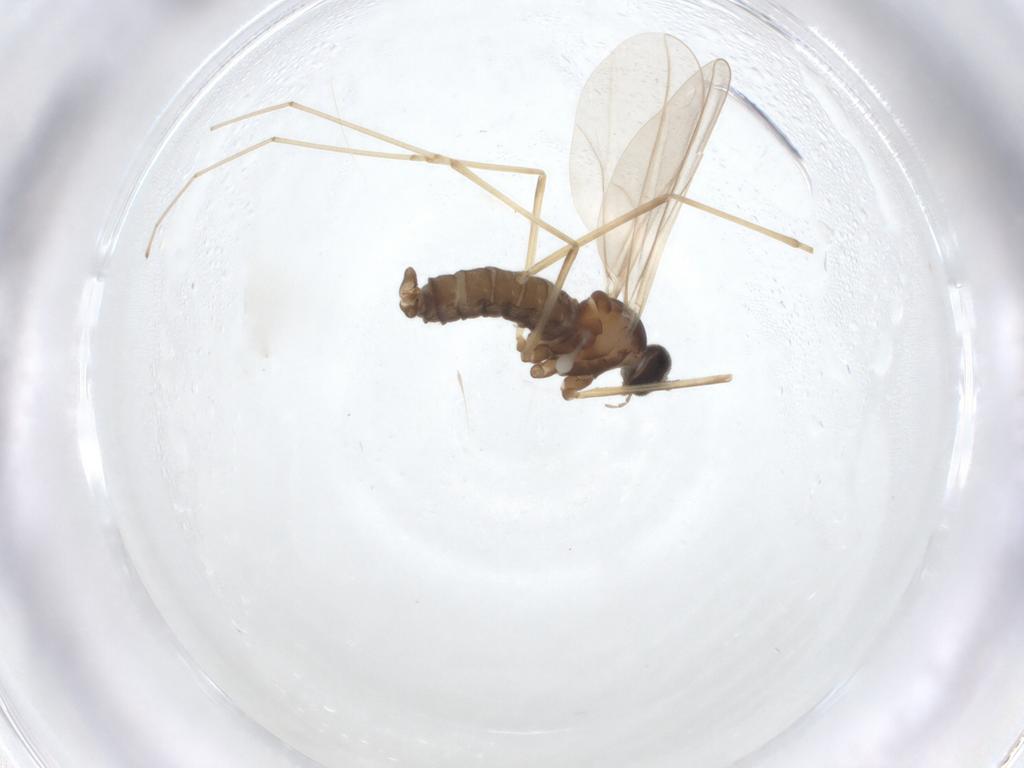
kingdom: Animalia
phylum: Arthropoda
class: Insecta
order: Diptera
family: Cecidomyiidae
